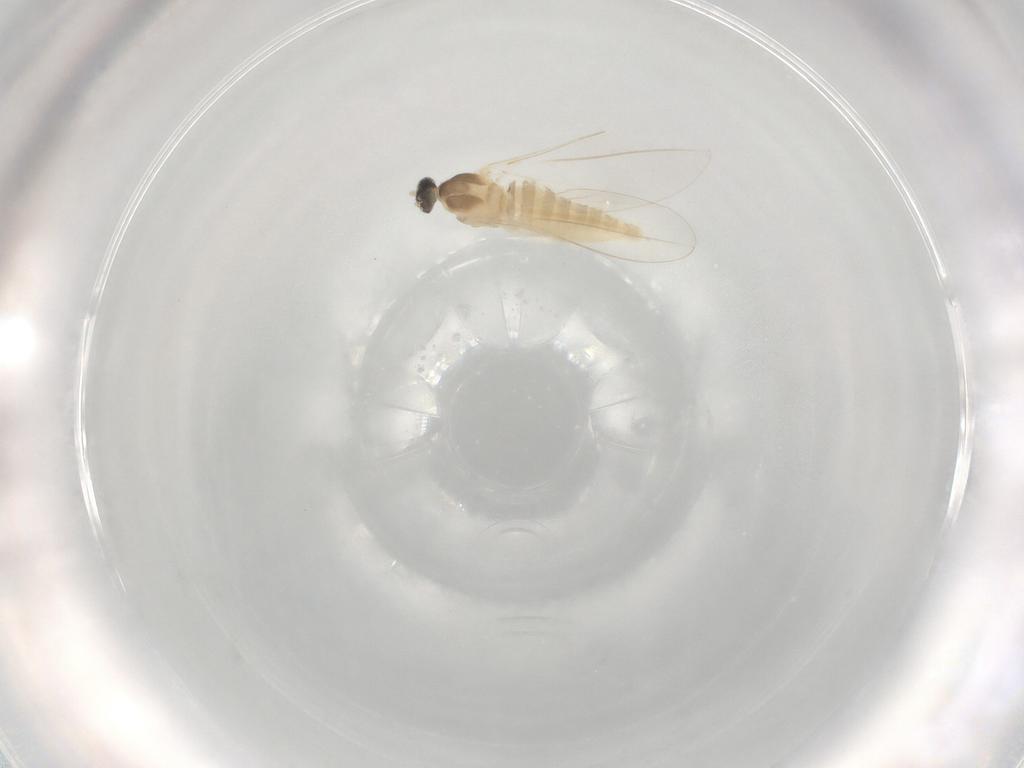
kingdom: Animalia
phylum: Arthropoda
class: Insecta
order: Diptera
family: Cecidomyiidae
